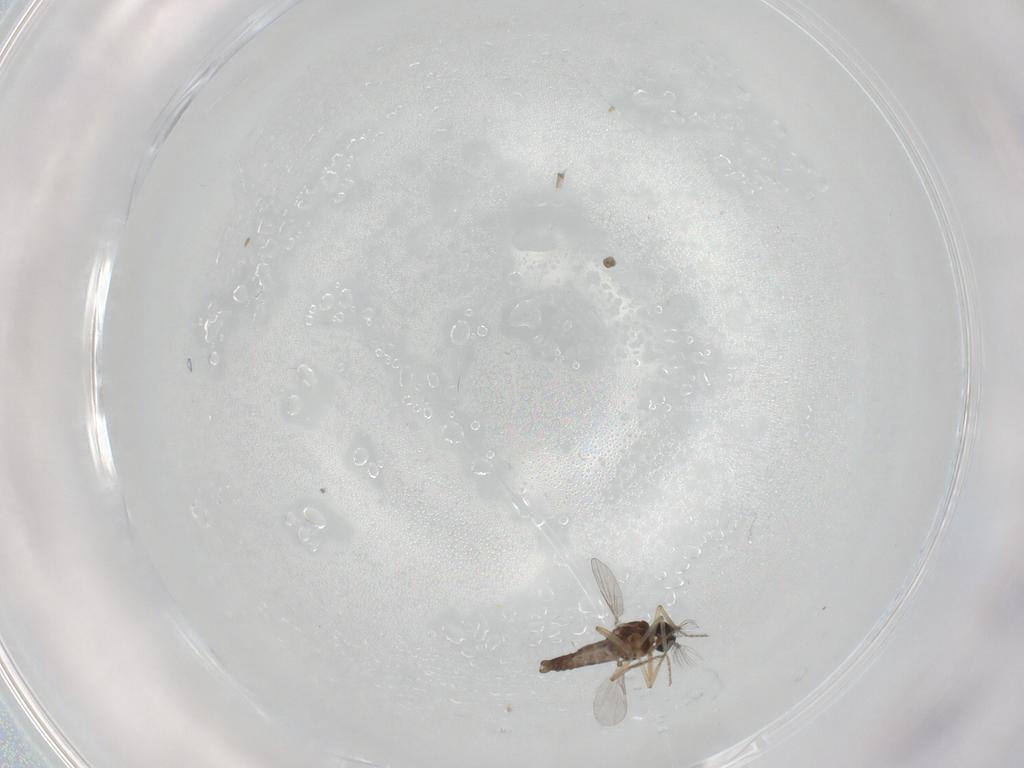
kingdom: Animalia
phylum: Arthropoda
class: Insecta
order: Diptera
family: Ceratopogonidae
